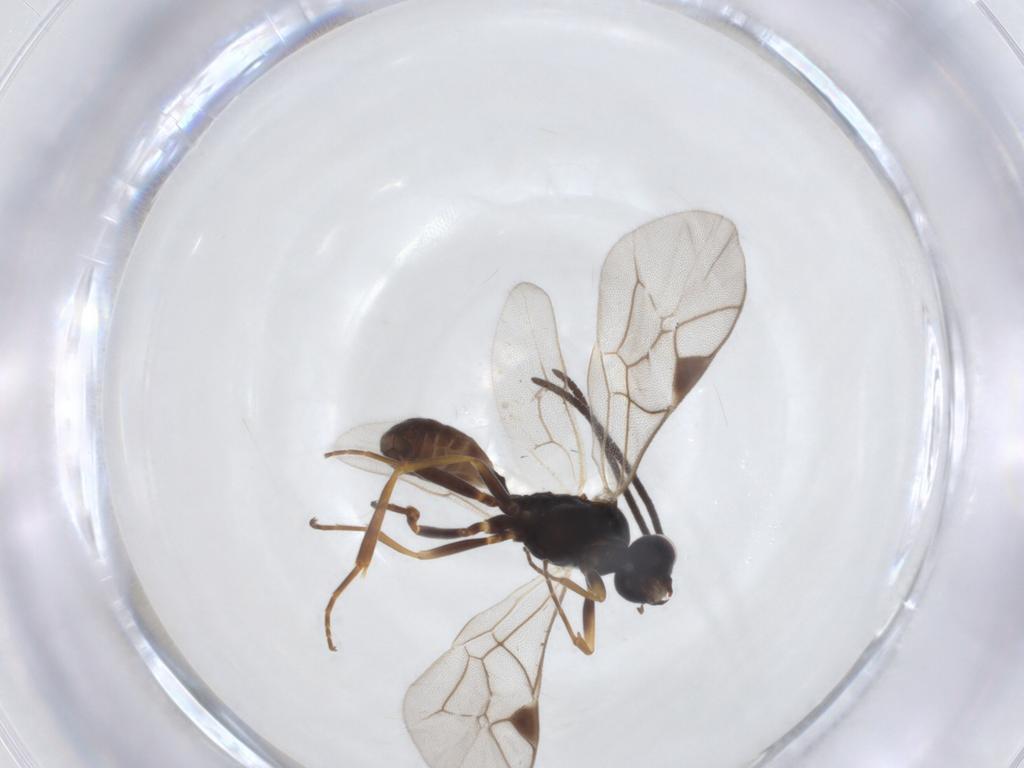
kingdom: Animalia
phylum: Arthropoda
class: Insecta
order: Hymenoptera
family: Ichneumonidae
